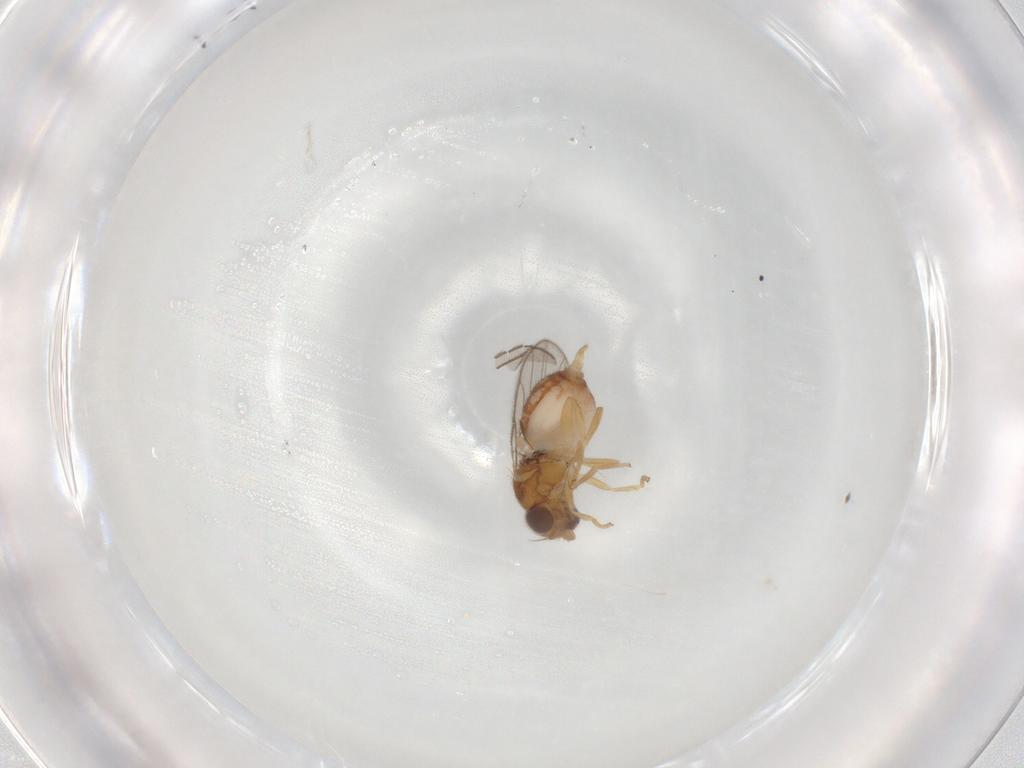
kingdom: Animalia
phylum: Arthropoda
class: Insecta
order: Diptera
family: Chloropidae
